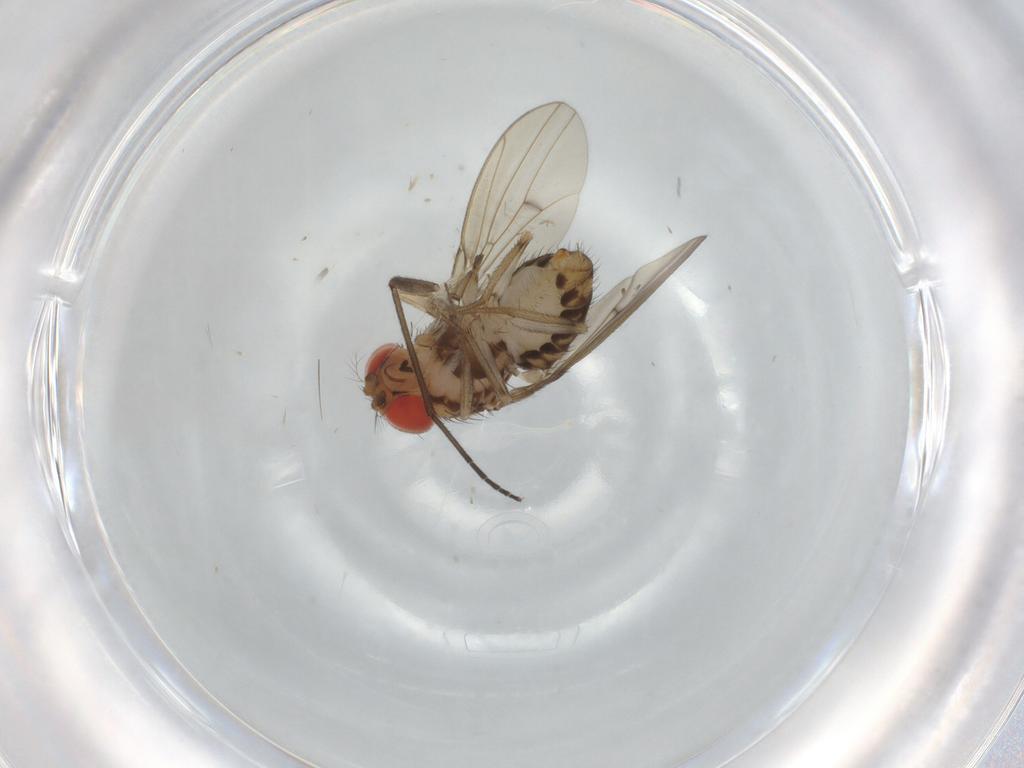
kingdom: Animalia
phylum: Arthropoda
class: Insecta
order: Diptera
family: Drosophilidae
